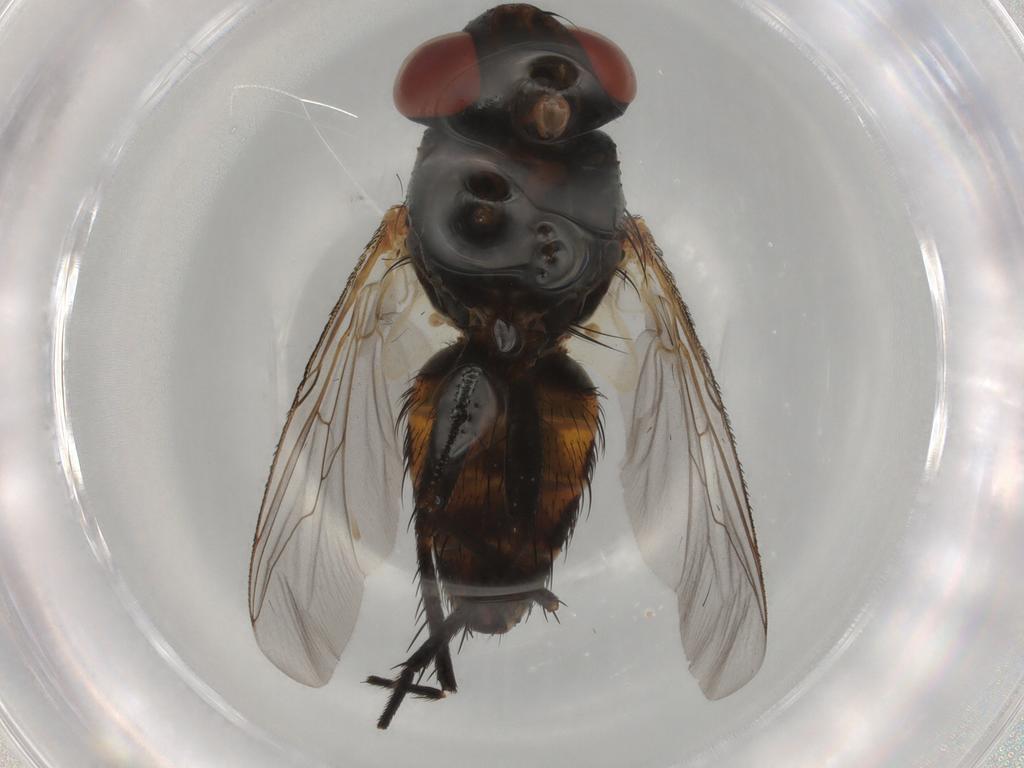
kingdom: Animalia
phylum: Arthropoda
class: Insecta
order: Diptera
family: Sarcophagidae
